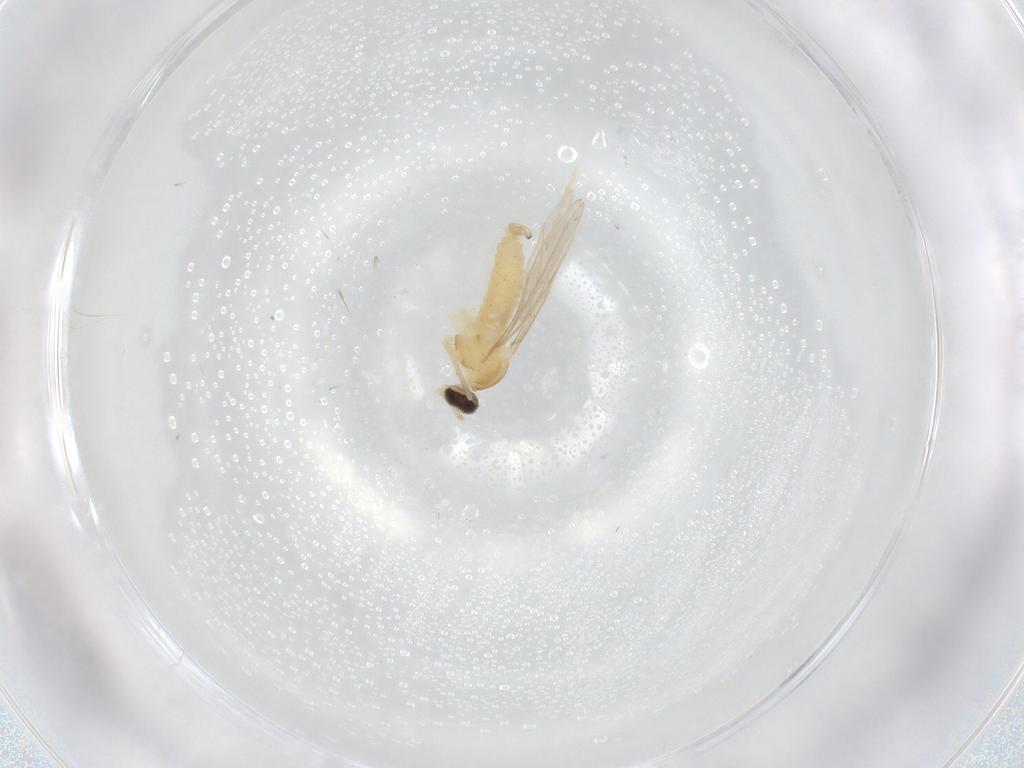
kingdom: Animalia
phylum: Arthropoda
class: Insecta
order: Diptera
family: Cecidomyiidae
